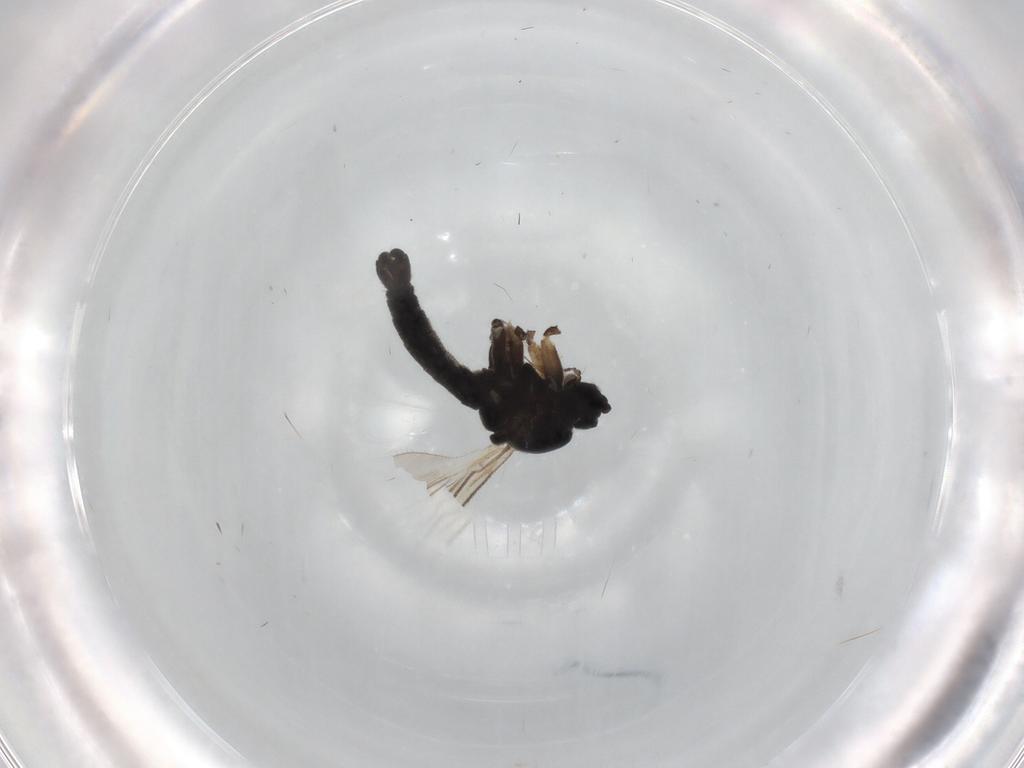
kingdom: Animalia
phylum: Arthropoda
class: Insecta
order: Diptera
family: Sciaridae
